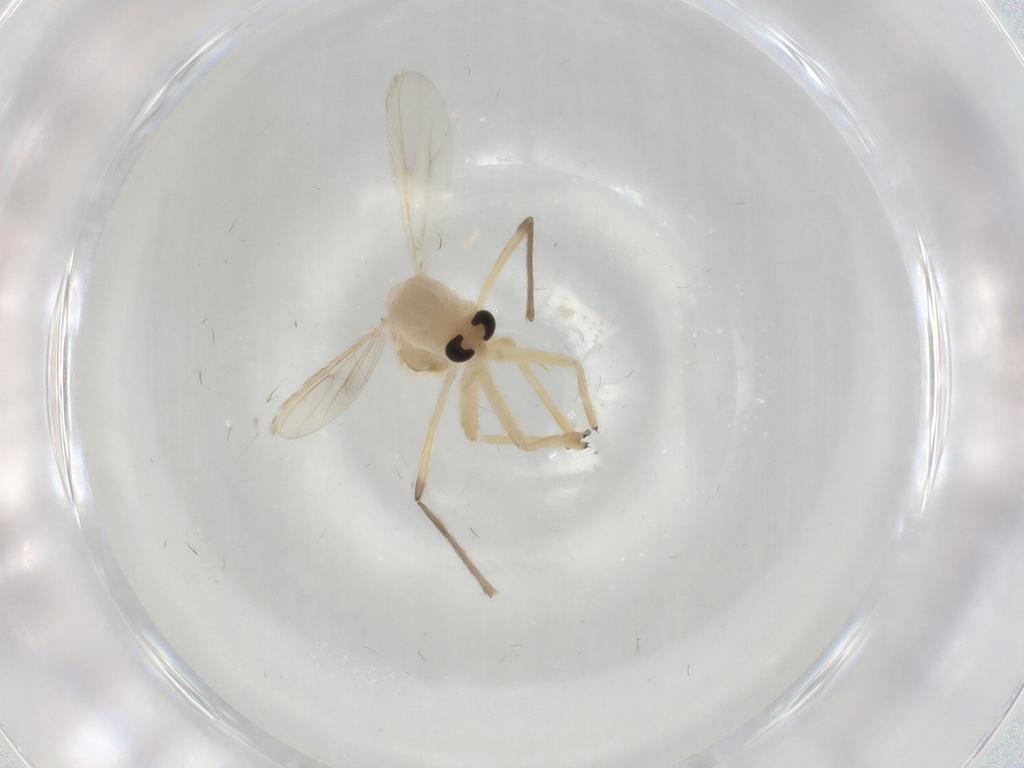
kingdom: Animalia
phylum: Arthropoda
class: Insecta
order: Diptera
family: Chironomidae
